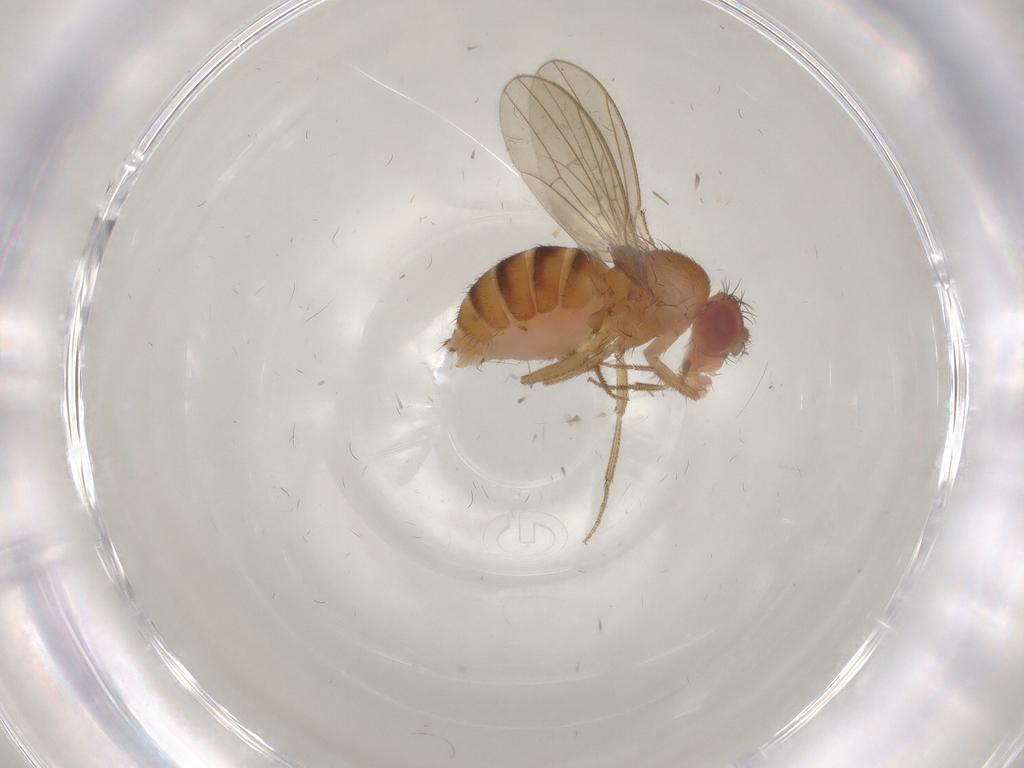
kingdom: Animalia
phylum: Arthropoda
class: Insecta
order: Diptera
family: Drosophilidae
